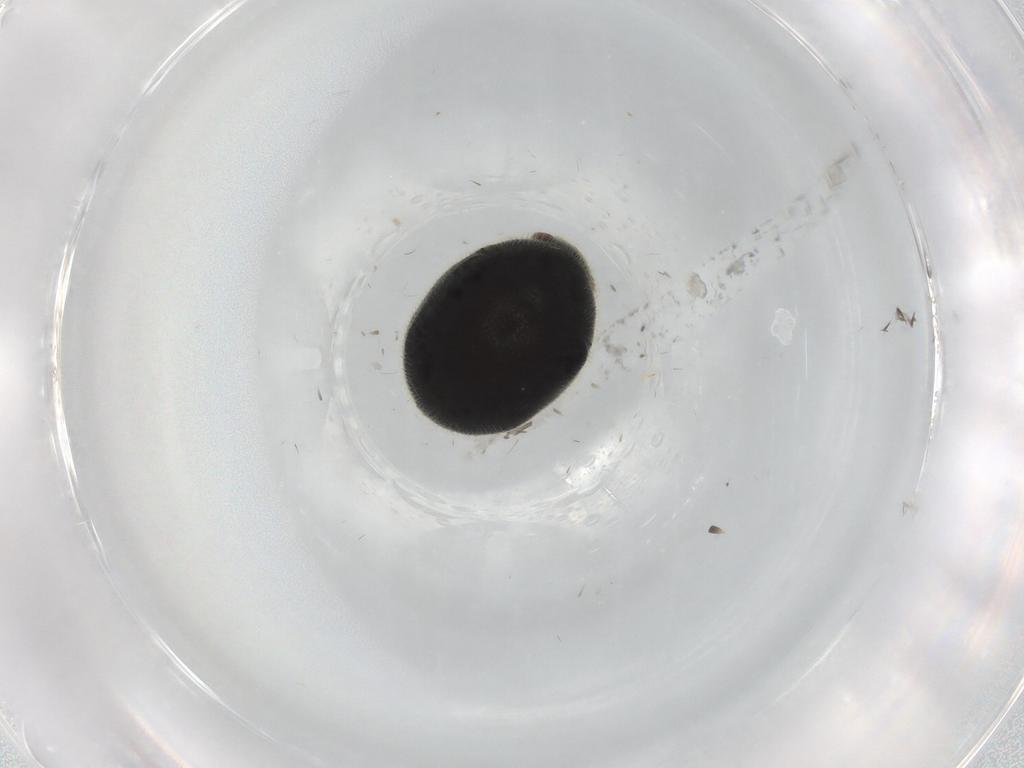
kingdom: Animalia
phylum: Arthropoda
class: Insecta
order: Coleoptera
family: Ptinidae
